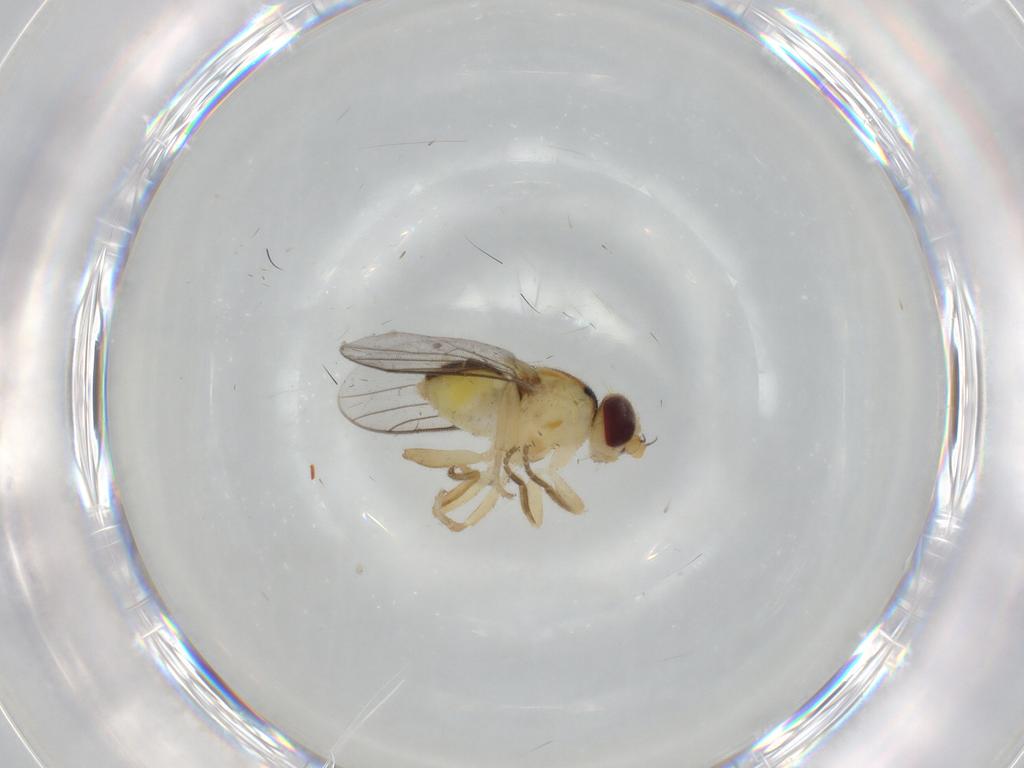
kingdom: Animalia
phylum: Arthropoda
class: Insecta
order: Diptera
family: Chloropidae
